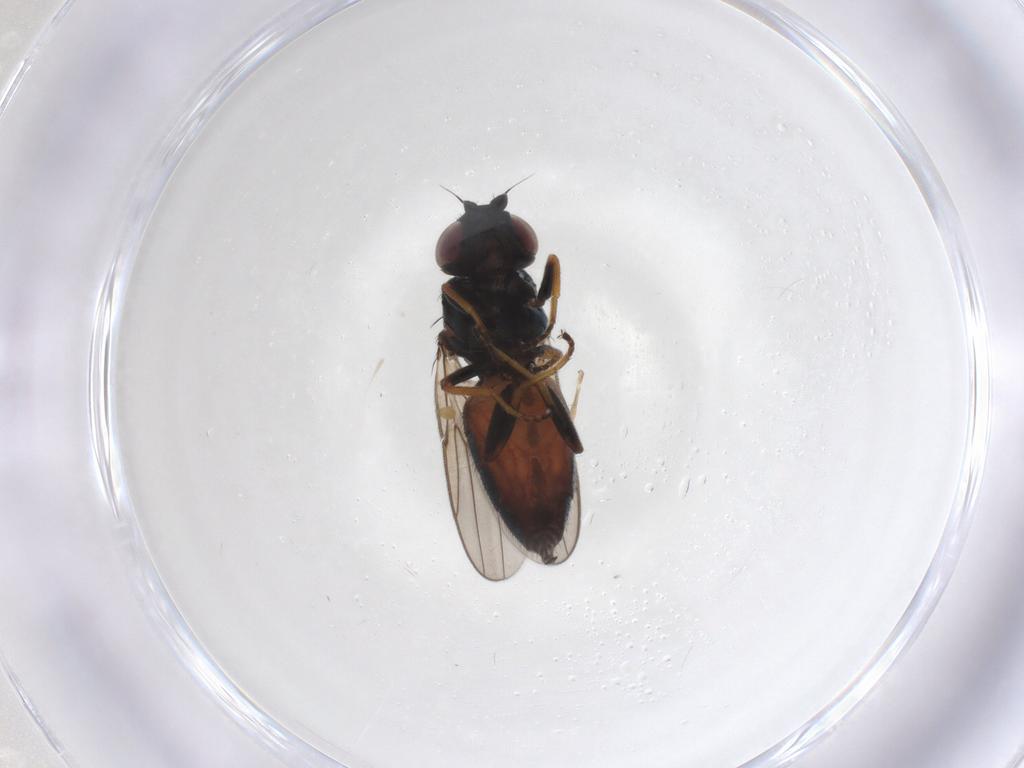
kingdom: Animalia
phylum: Arthropoda
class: Insecta
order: Diptera
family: Chloropidae
